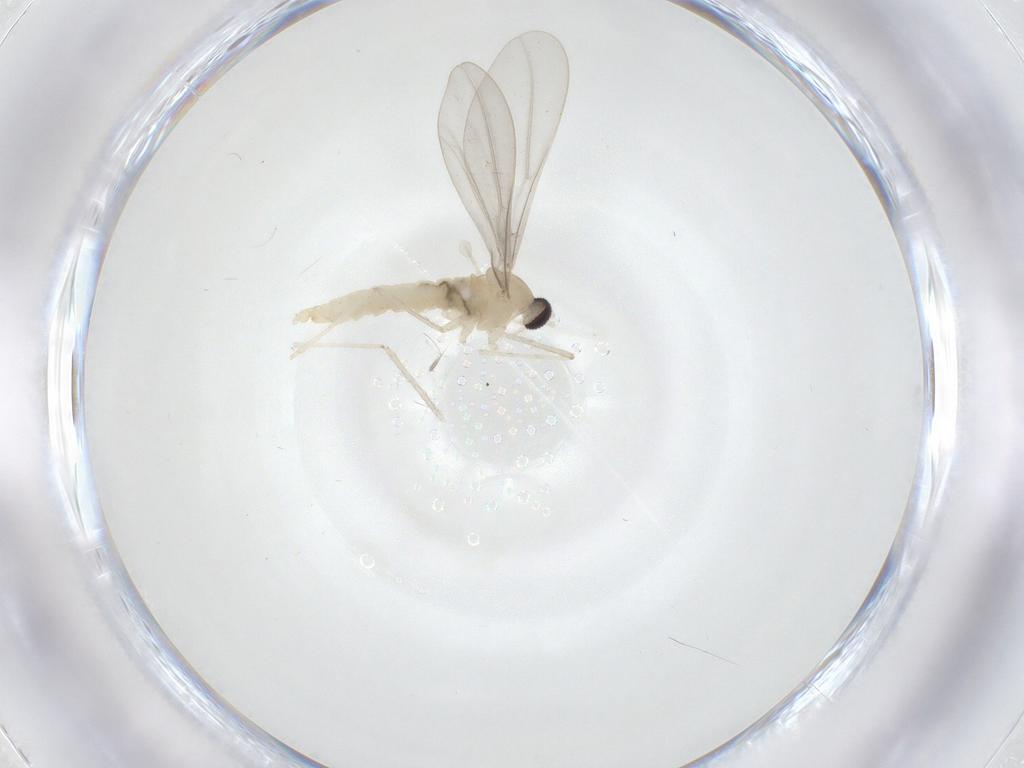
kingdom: Animalia
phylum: Arthropoda
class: Insecta
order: Diptera
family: Cecidomyiidae
